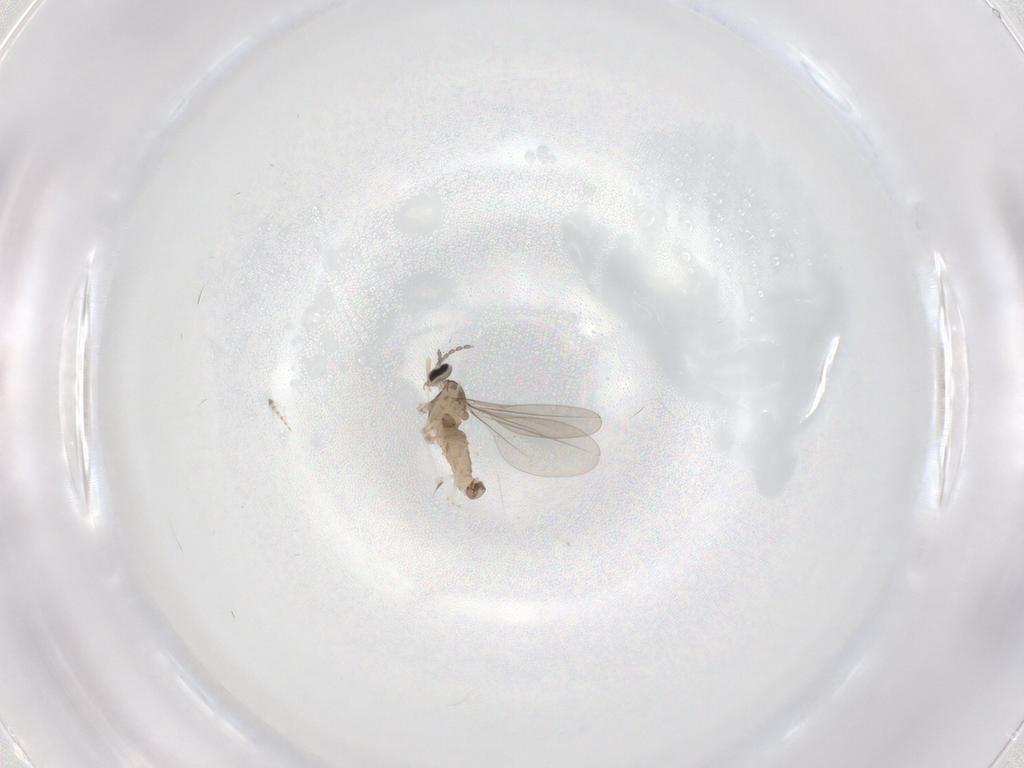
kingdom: Animalia
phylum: Arthropoda
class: Insecta
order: Diptera
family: Cecidomyiidae
